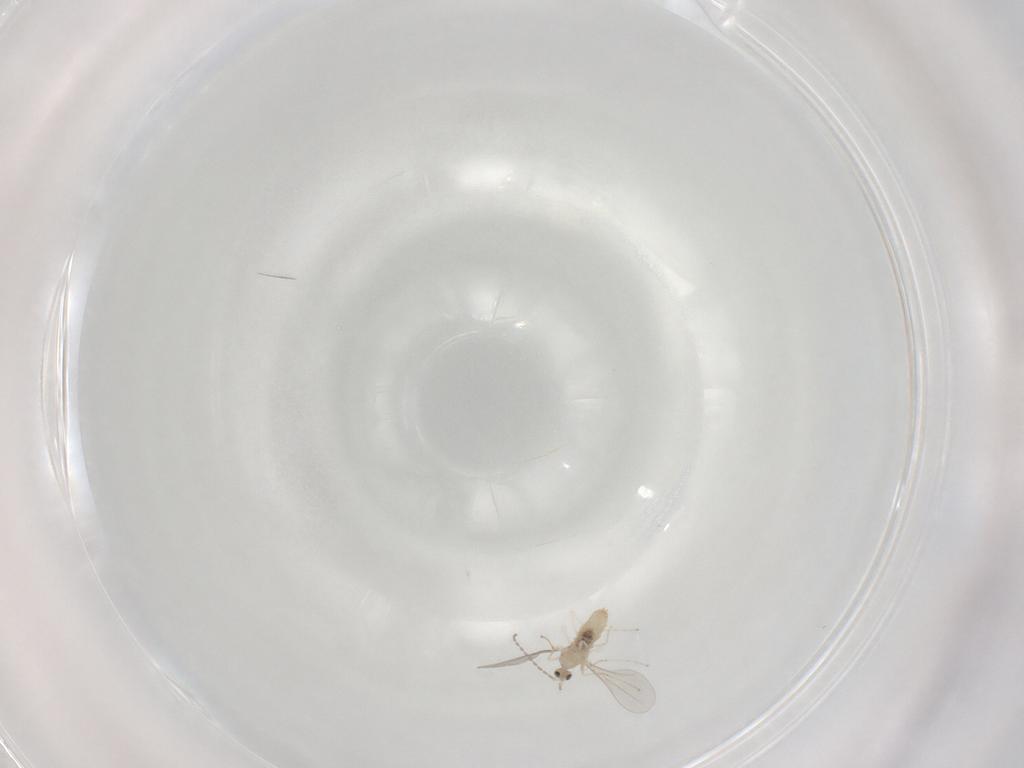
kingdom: Animalia
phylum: Arthropoda
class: Insecta
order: Diptera
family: Cecidomyiidae
